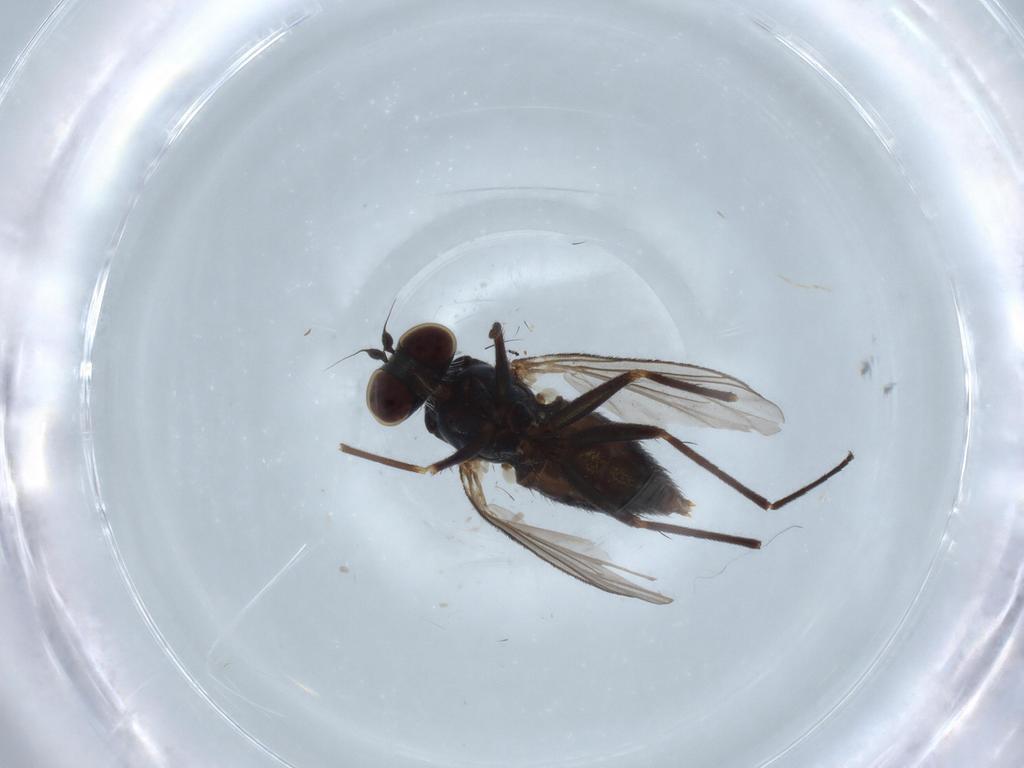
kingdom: Animalia
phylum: Arthropoda
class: Insecta
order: Diptera
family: Dolichopodidae
